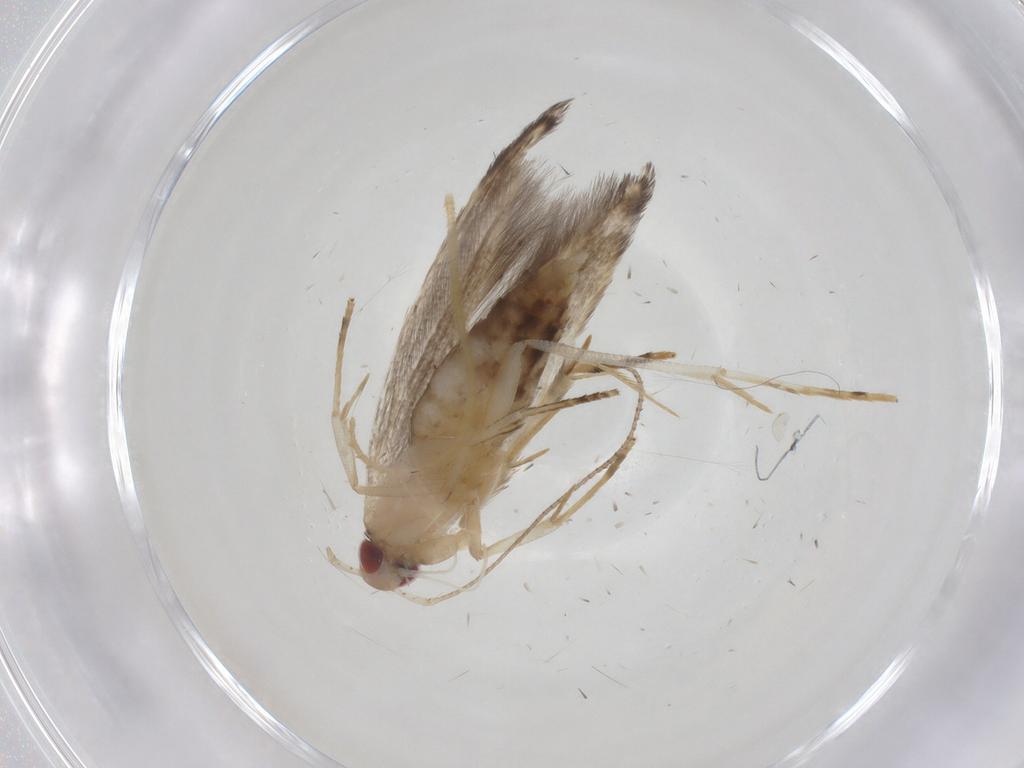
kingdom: Animalia
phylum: Arthropoda
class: Insecta
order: Lepidoptera
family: Cosmopterigidae
